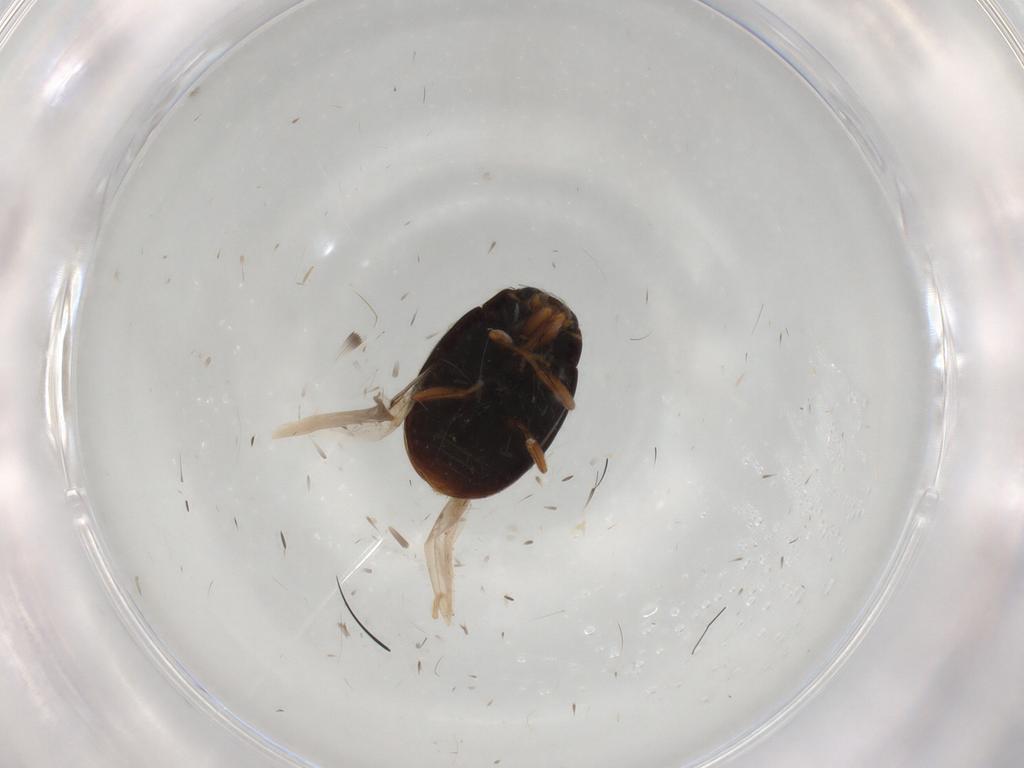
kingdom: Animalia
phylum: Arthropoda
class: Insecta
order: Coleoptera
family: Coccinellidae
